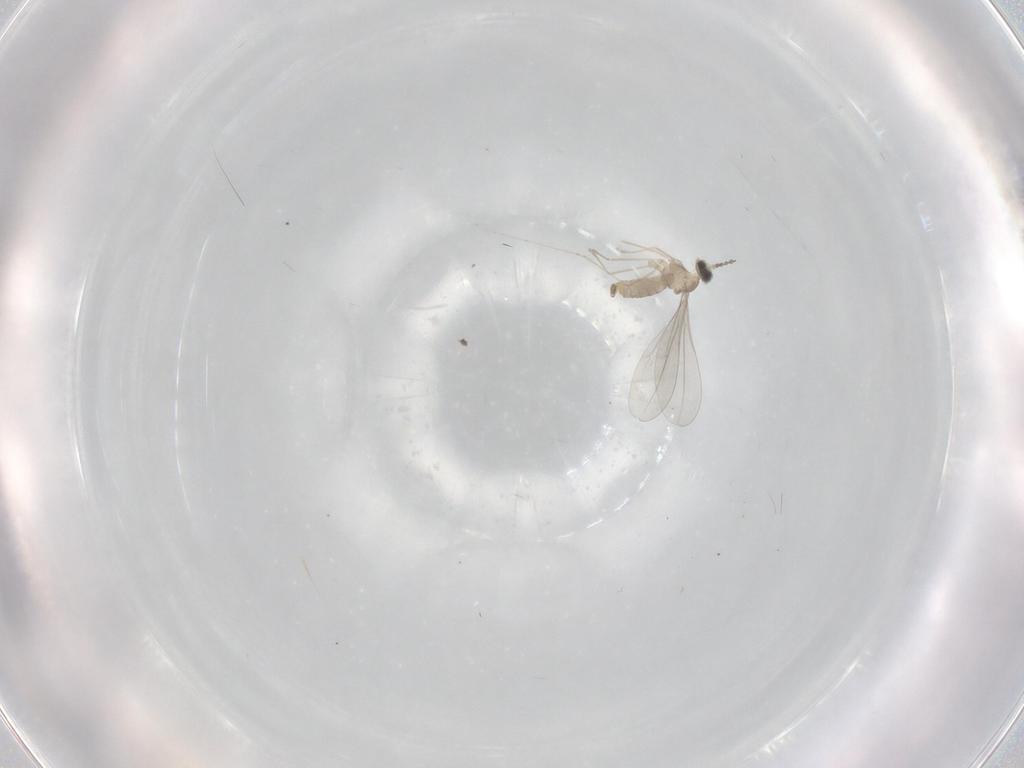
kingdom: Animalia
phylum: Arthropoda
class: Insecta
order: Diptera
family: Cecidomyiidae
